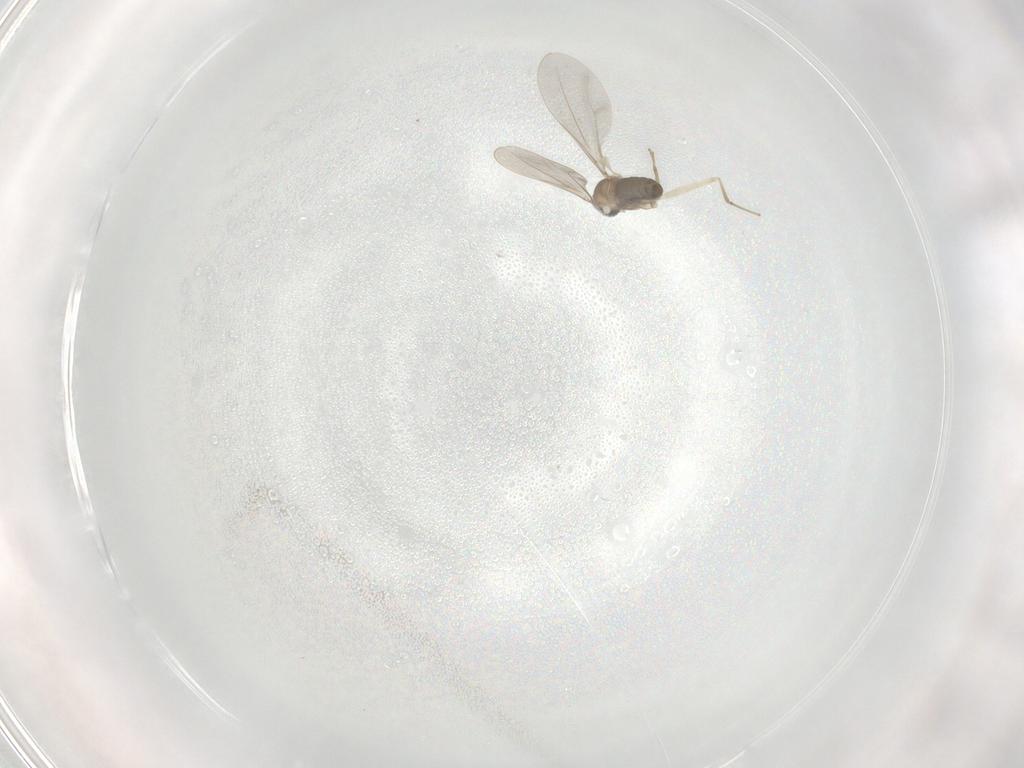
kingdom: Animalia
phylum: Arthropoda
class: Insecta
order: Diptera
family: Cecidomyiidae
